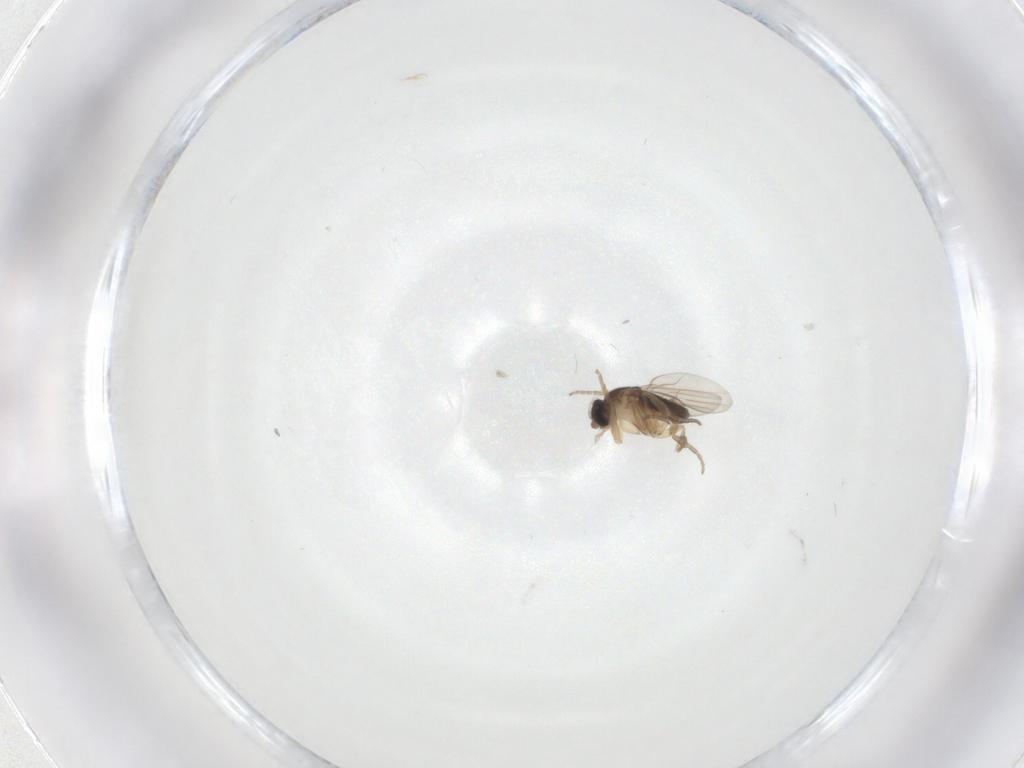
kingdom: Animalia
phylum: Arthropoda
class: Insecta
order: Diptera
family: Phoridae
